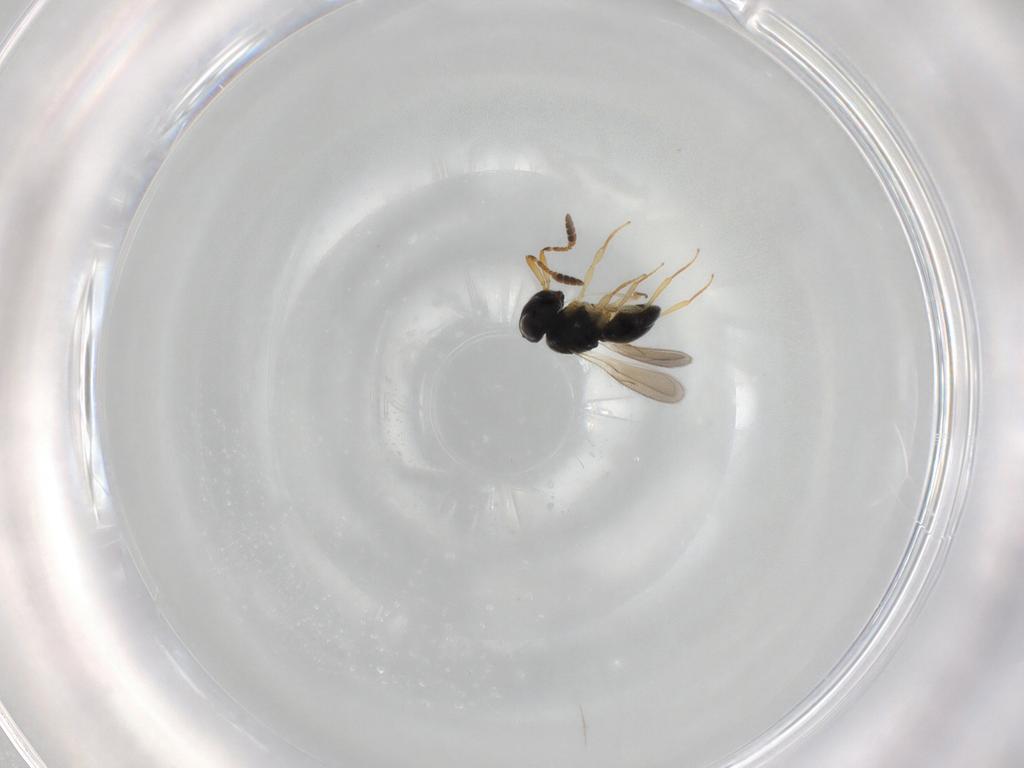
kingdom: Animalia
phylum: Arthropoda
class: Insecta
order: Hymenoptera
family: Scelionidae
